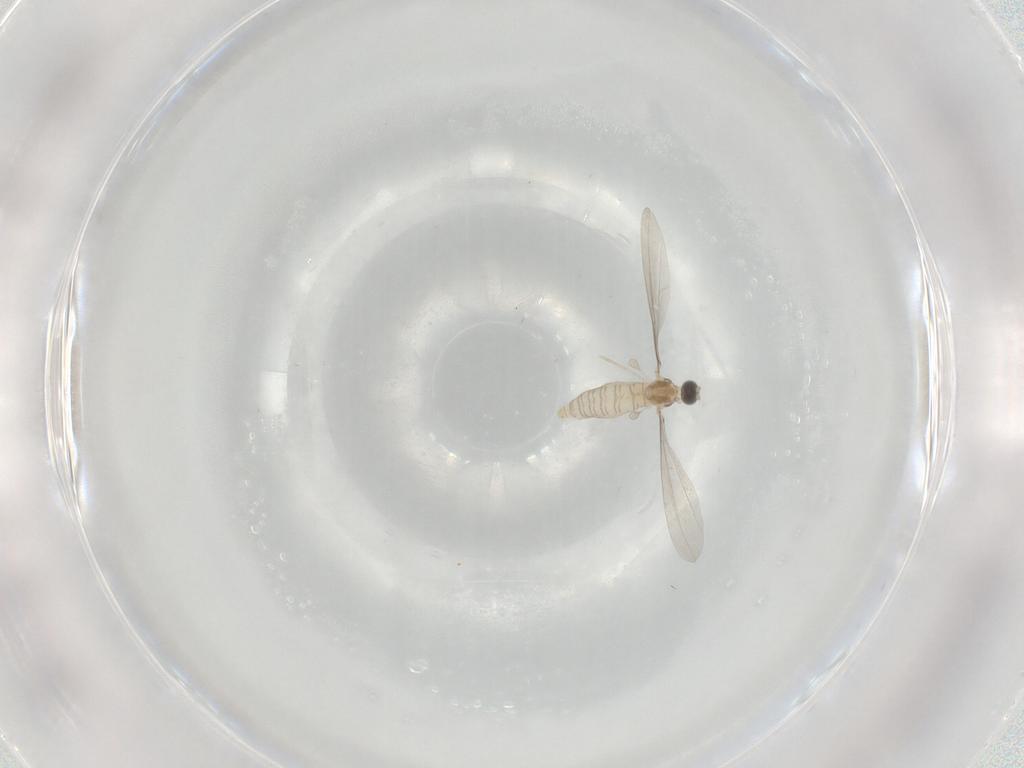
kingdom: Animalia
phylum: Arthropoda
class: Insecta
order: Diptera
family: Cecidomyiidae
